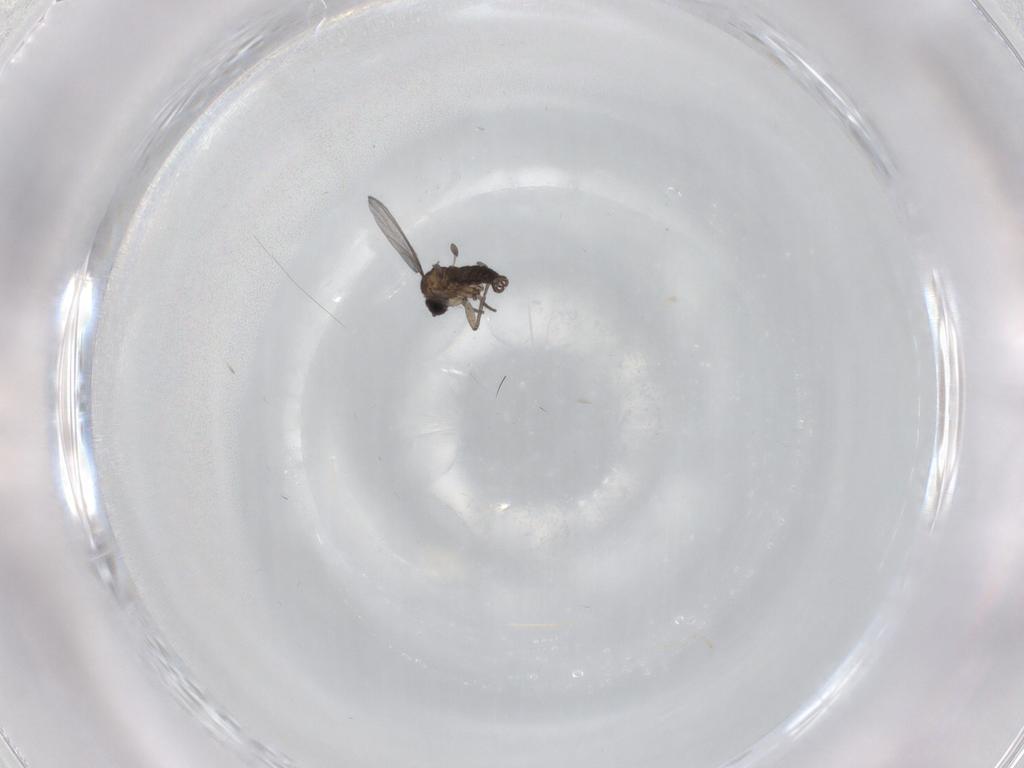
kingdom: Animalia
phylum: Arthropoda
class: Insecta
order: Diptera
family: Sciaridae
